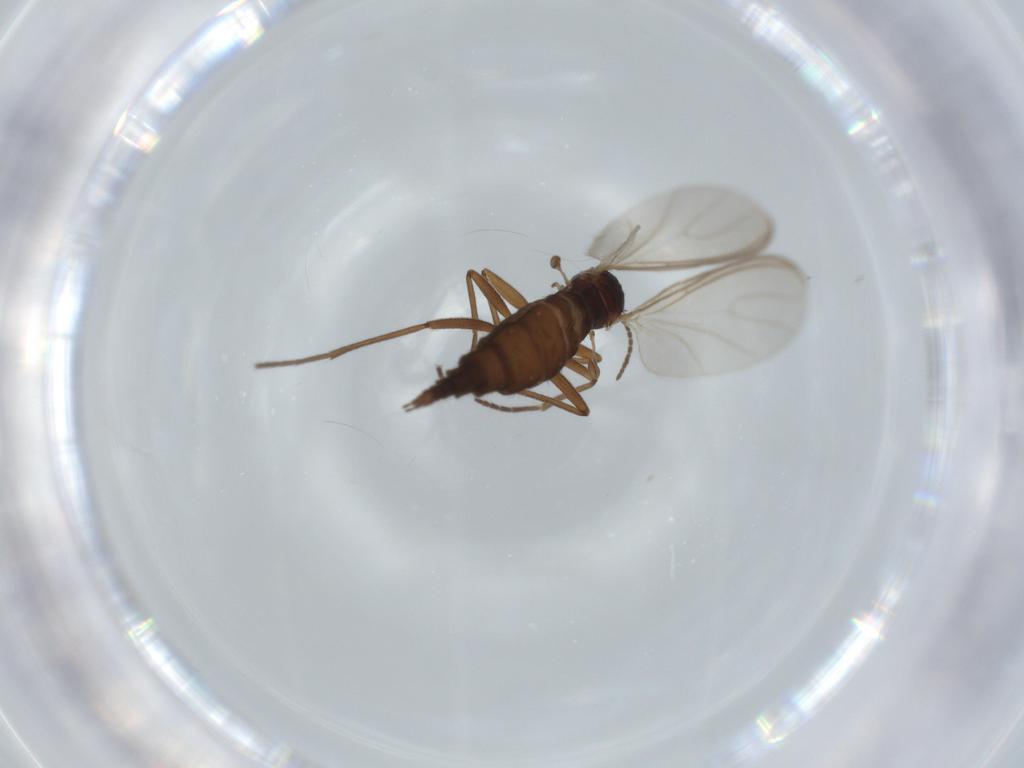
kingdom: Animalia
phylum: Arthropoda
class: Insecta
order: Diptera
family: Sciaridae
